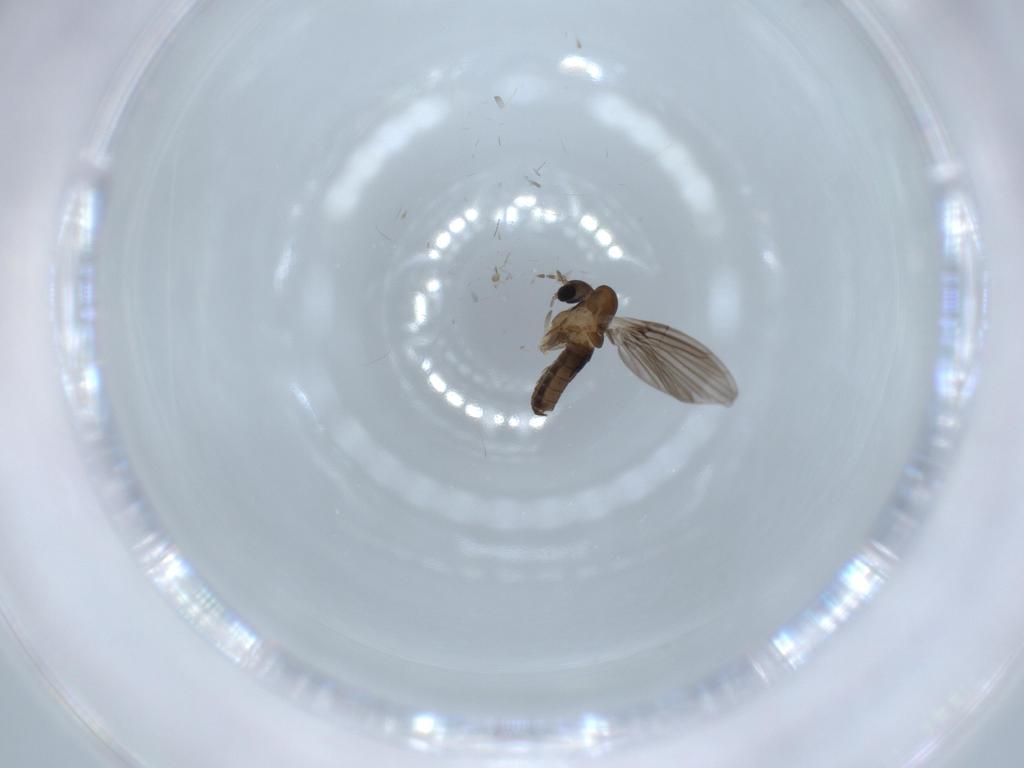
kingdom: Animalia
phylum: Arthropoda
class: Insecta
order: Diptera
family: Psychodidae
